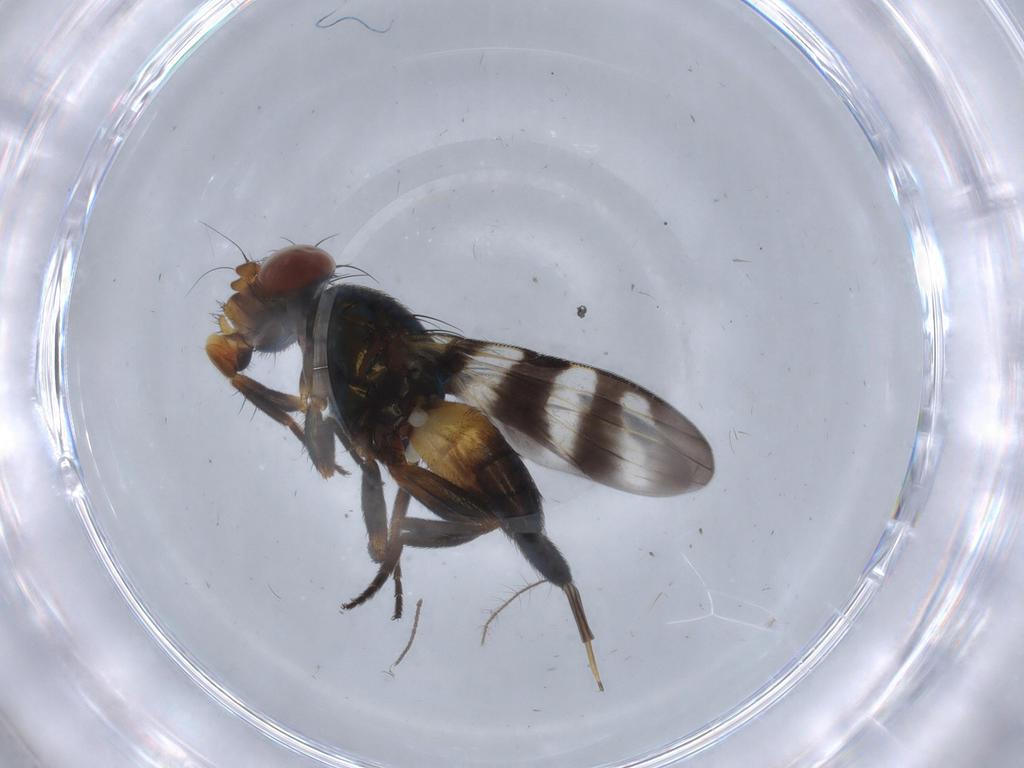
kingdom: Animalia
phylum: Arthropoda
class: Insecta
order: Diptera
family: Culicidae
